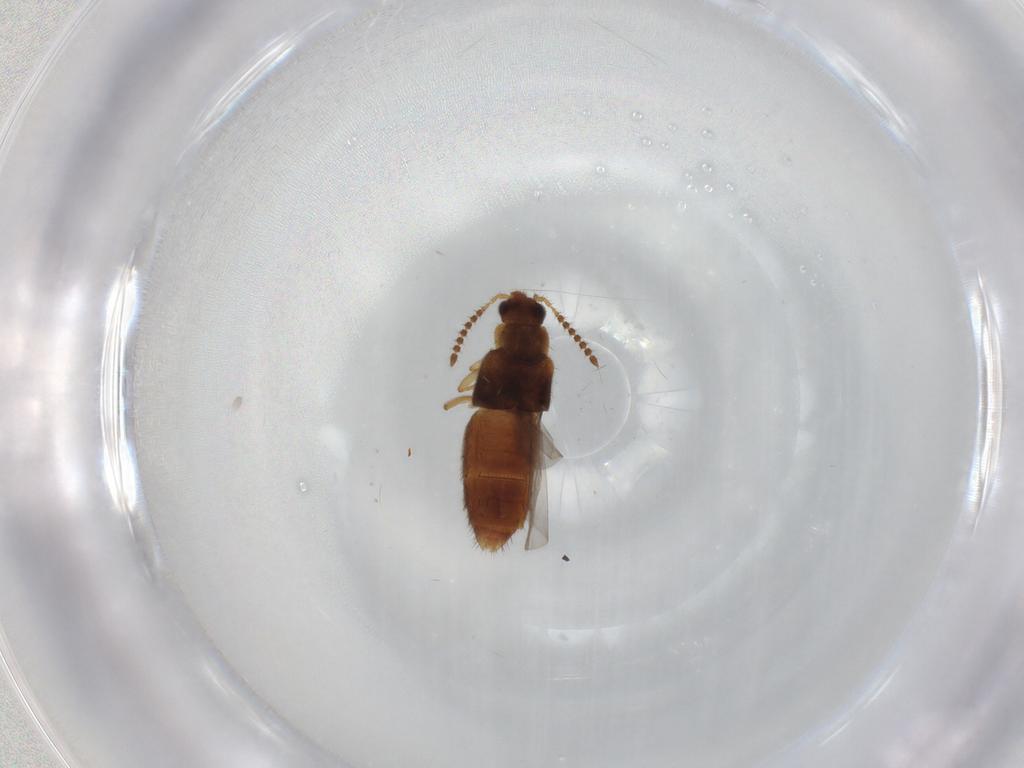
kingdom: Animalia
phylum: Arthropoda
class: Insecta
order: Coleoptera
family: Staphylinidae
